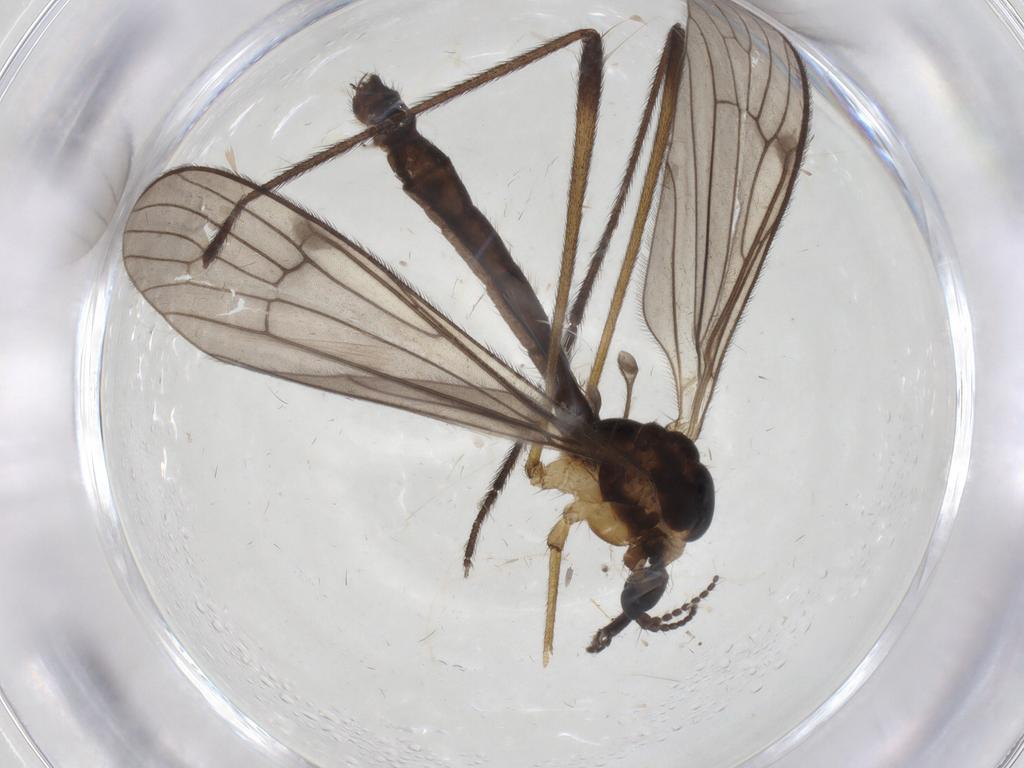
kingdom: Animalia
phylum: Arthropoda
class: Insecta
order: Diptera
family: Limoniidae
